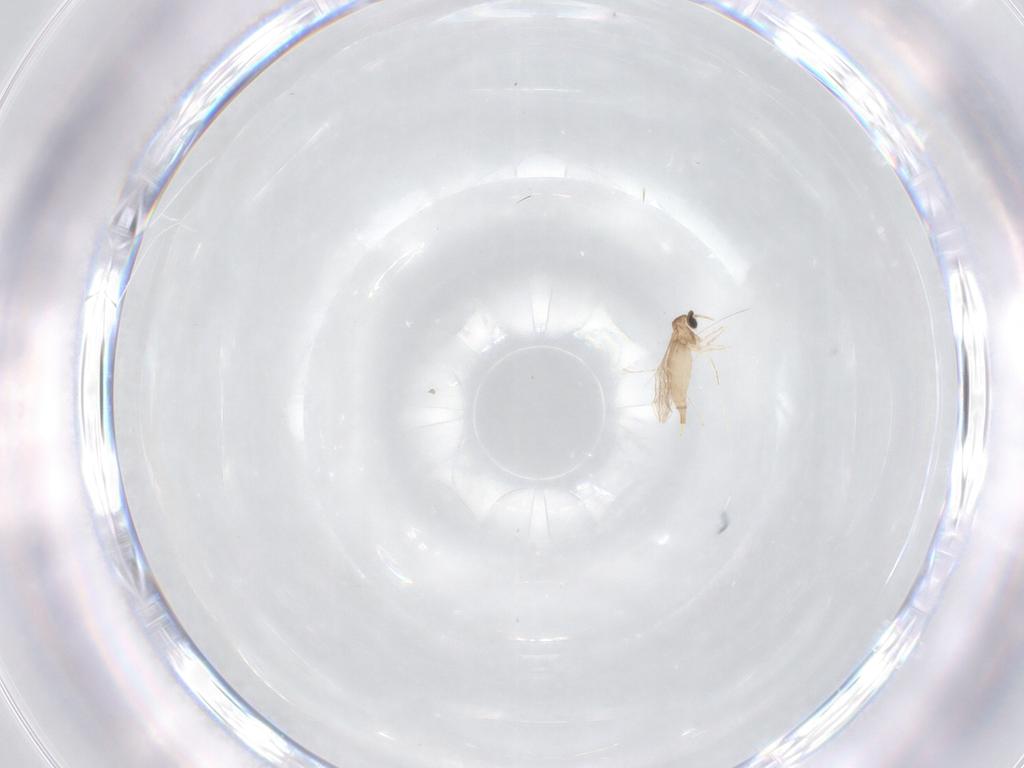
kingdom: Animalia
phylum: Arthropoda
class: Insecta
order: Diptera
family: Cecidomyiidae
